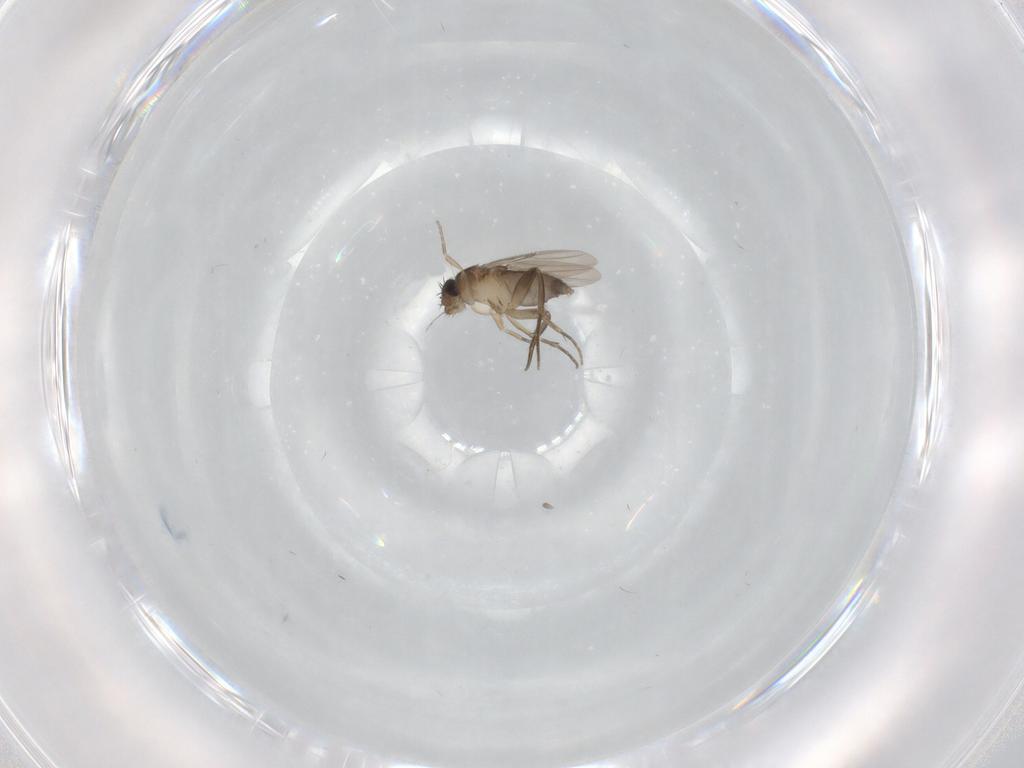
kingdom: Animalia
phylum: Arthropoda
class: Insecta
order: Diptera
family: Phoridae
